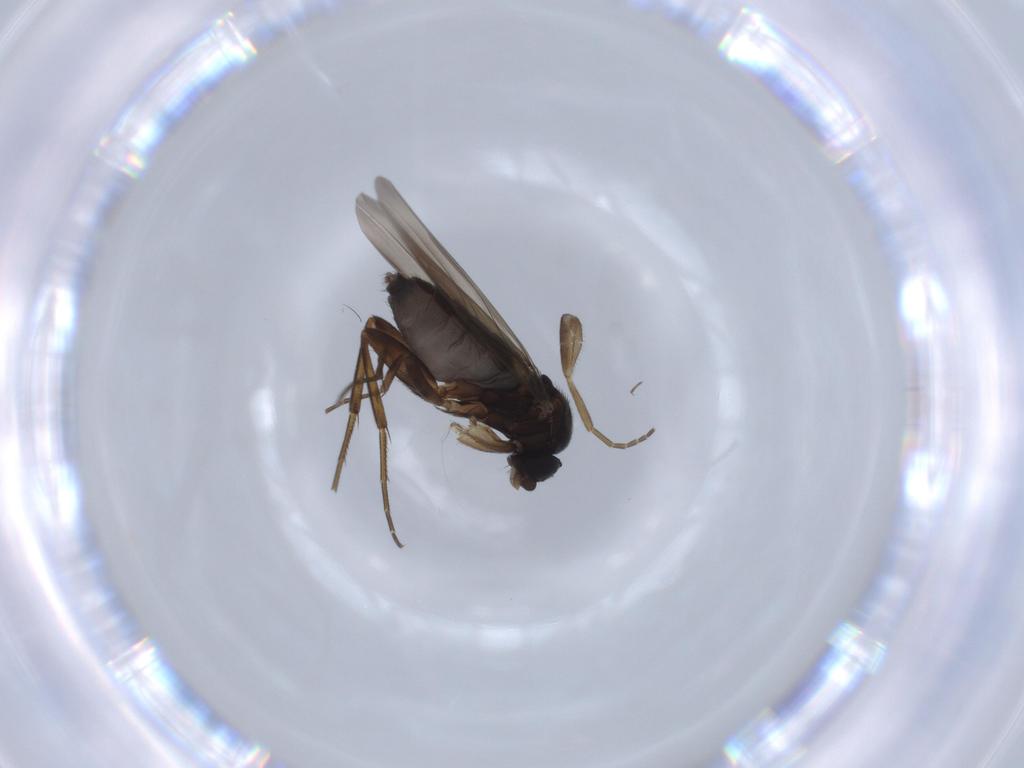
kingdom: Animalia
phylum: Arthropoda
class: Insecta
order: Diptera
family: Phoridae
